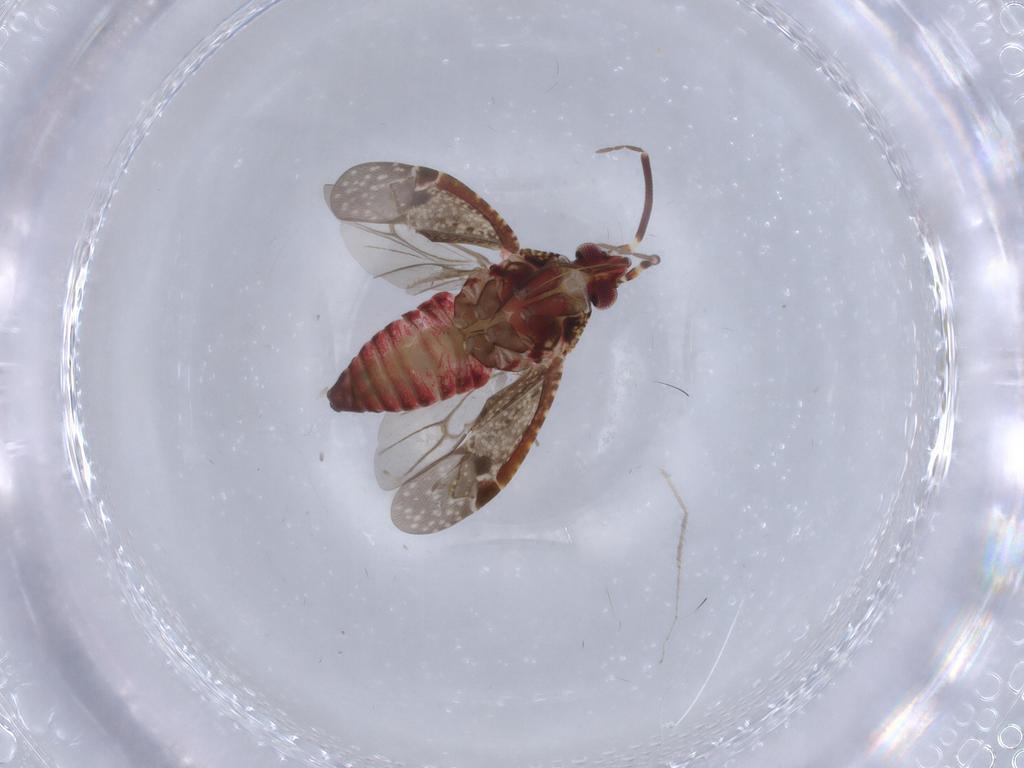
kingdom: Animalia
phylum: Arthropoda
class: Insecta
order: Hemiptera
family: Miridae
